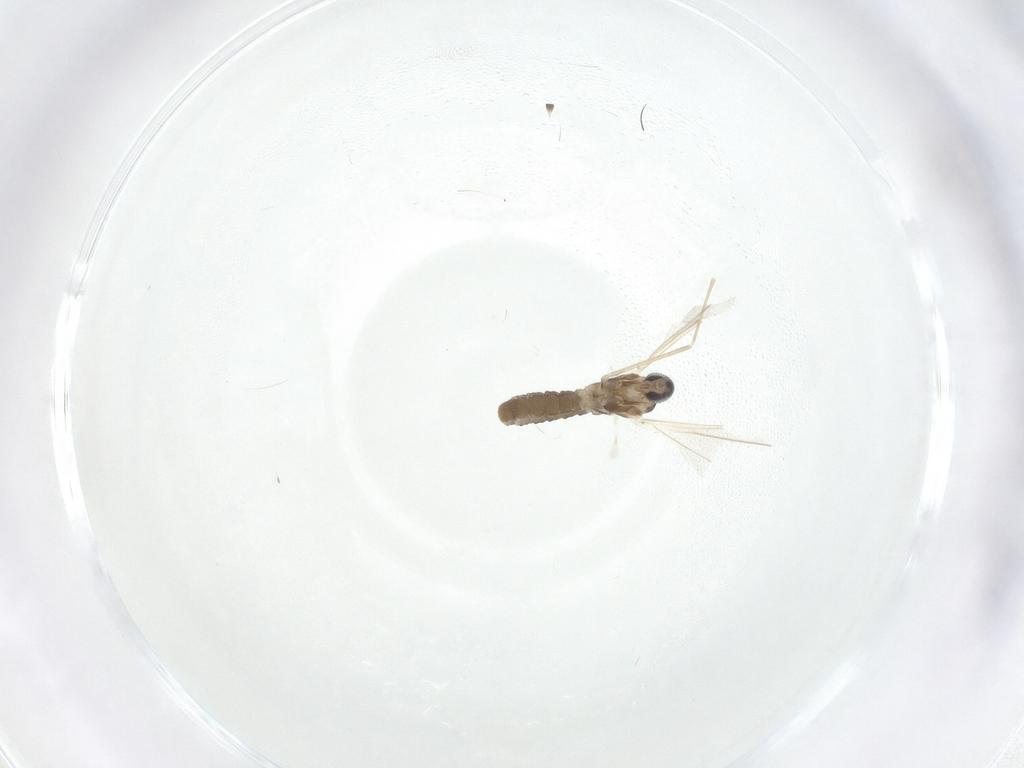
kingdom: Animalia
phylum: Arthropoda
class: Insecta
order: Diptera
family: Cecidomyiidae
